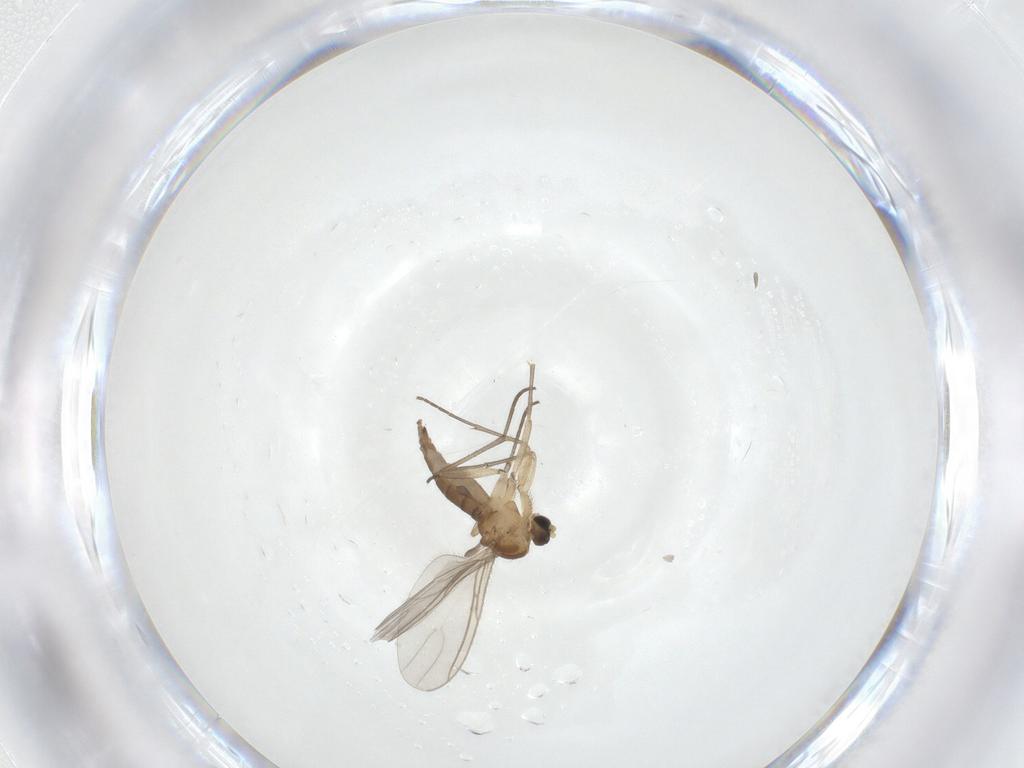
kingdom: Animalia
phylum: Arthropoda
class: Insecta
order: Diptera
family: Sciaridae
